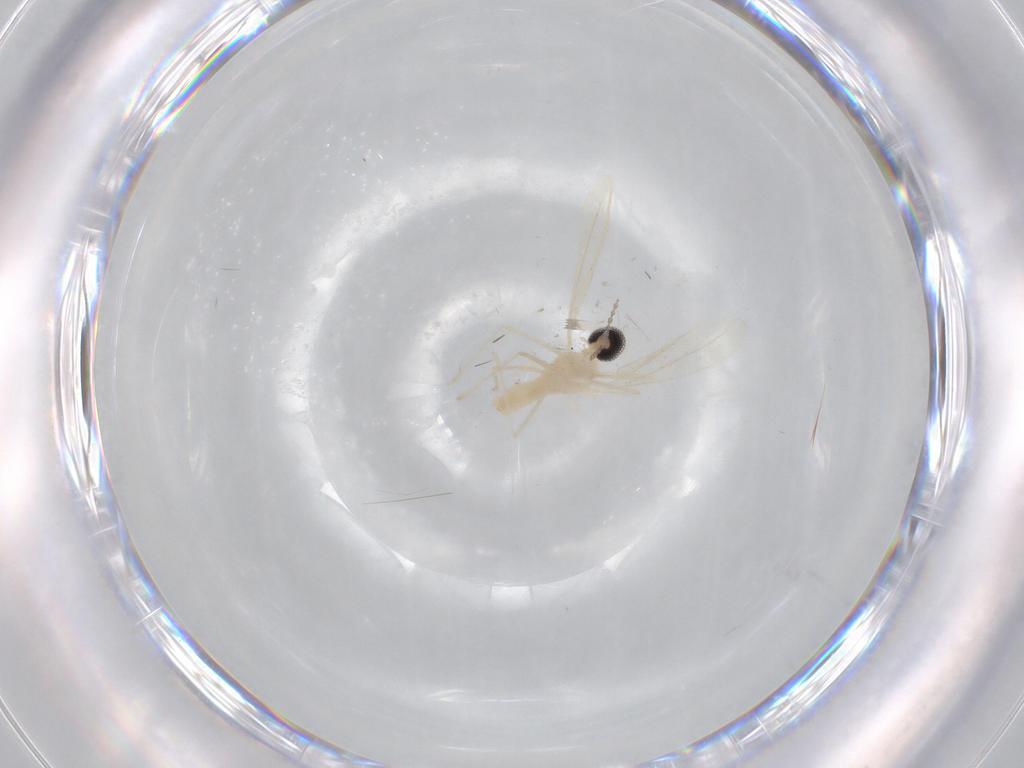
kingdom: Animalia
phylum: Arthropoda
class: Insecta
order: Diptera
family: Cecidomyiidae
